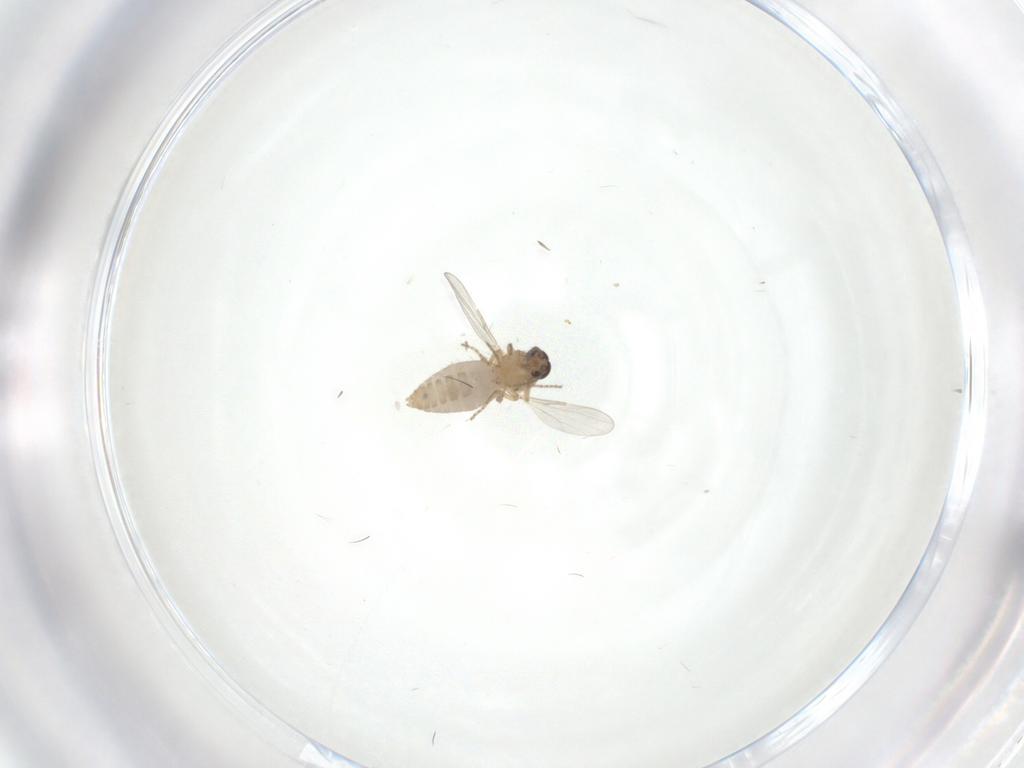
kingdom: Animalia
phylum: Arthropoda
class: Insecta
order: Diptera
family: Ceratopogonidae
